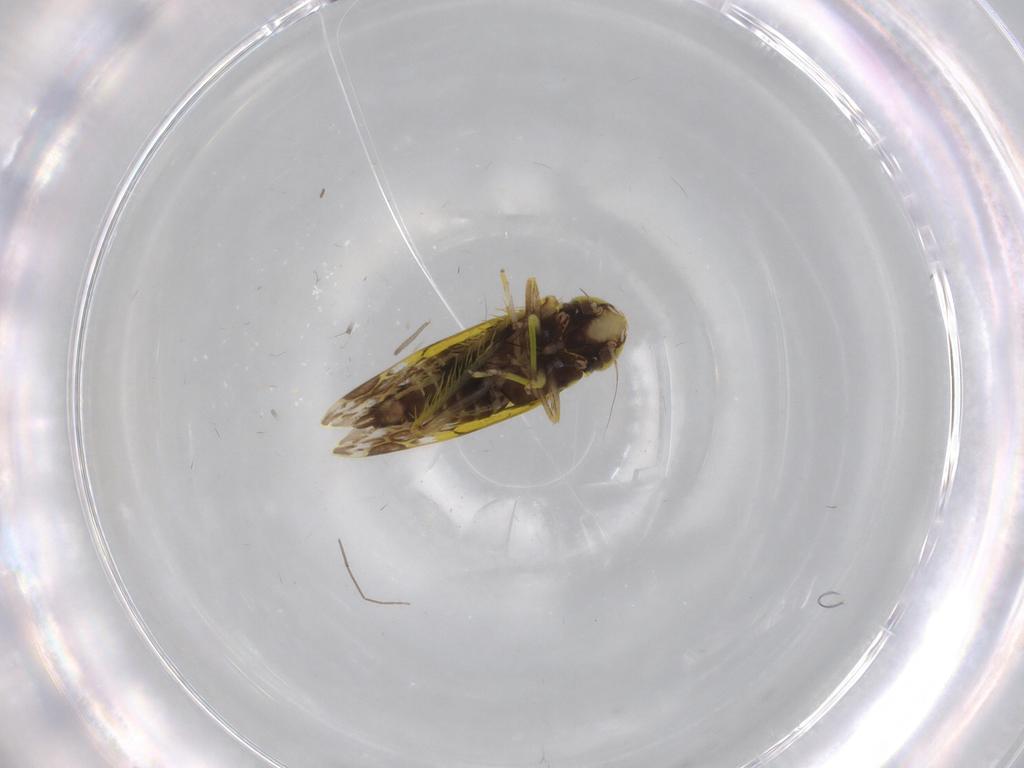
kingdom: Animalia
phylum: Arthropoda
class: Insecta
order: Hemiptera
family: Cicadellidae
